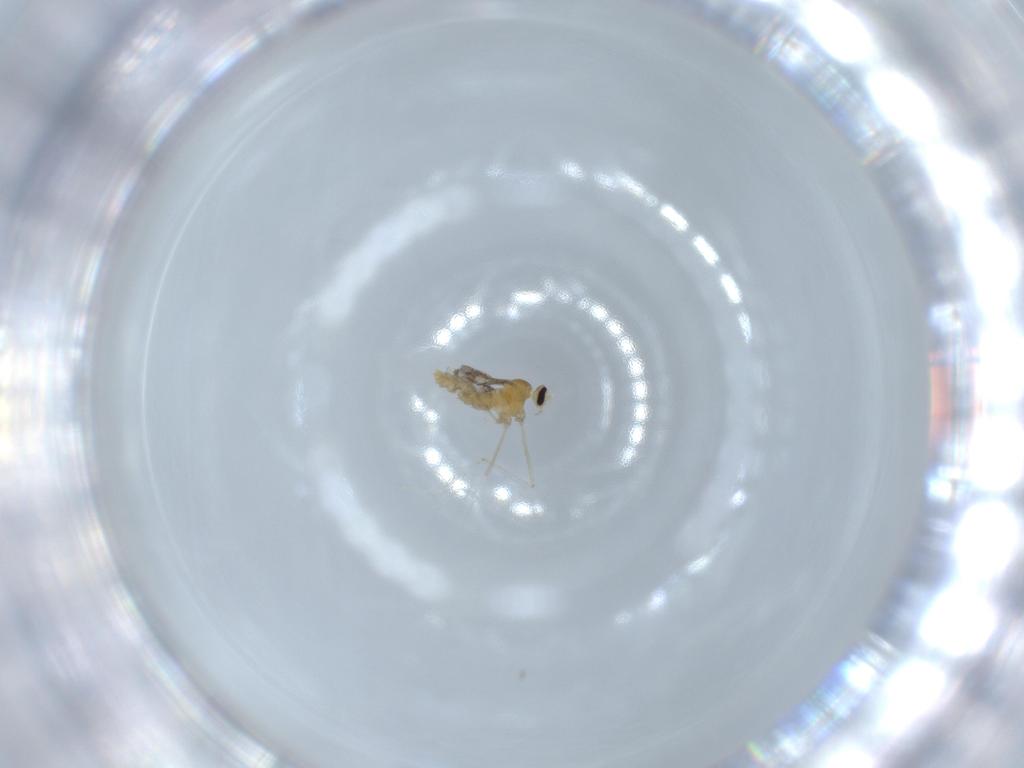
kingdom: Animalia
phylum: Arthropoda
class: Insecta
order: Diptera
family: Cecidomyiidae
